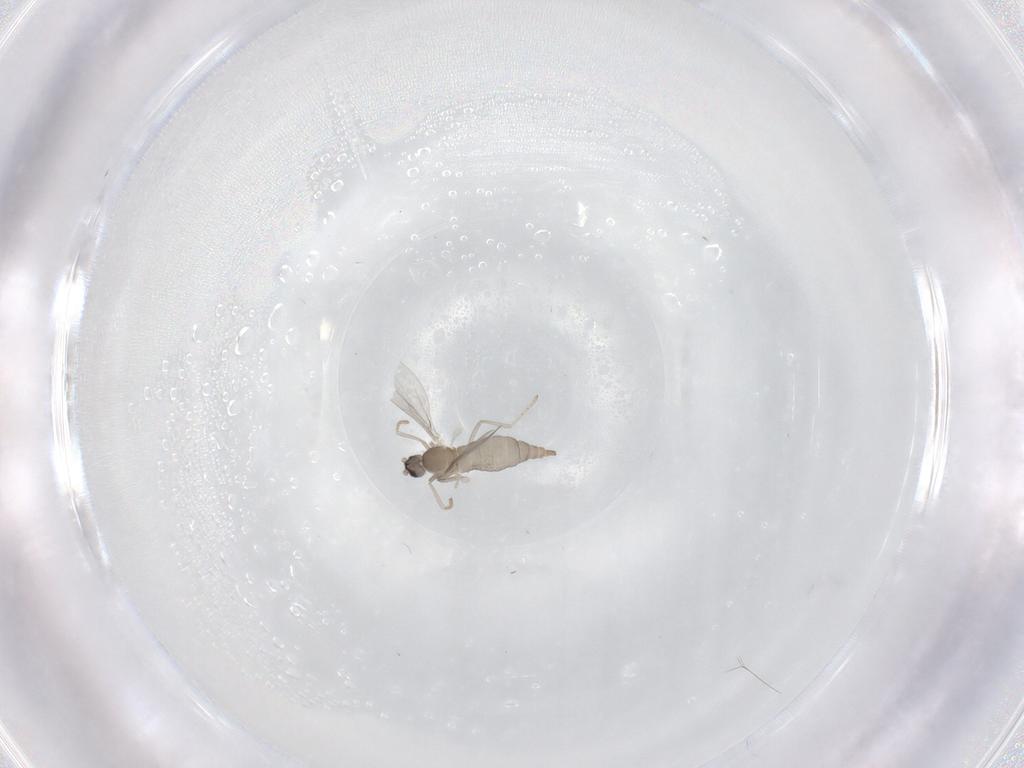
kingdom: Animalia
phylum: Arthropoda
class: Insecta
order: Diptera
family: Cecidomyiidae
